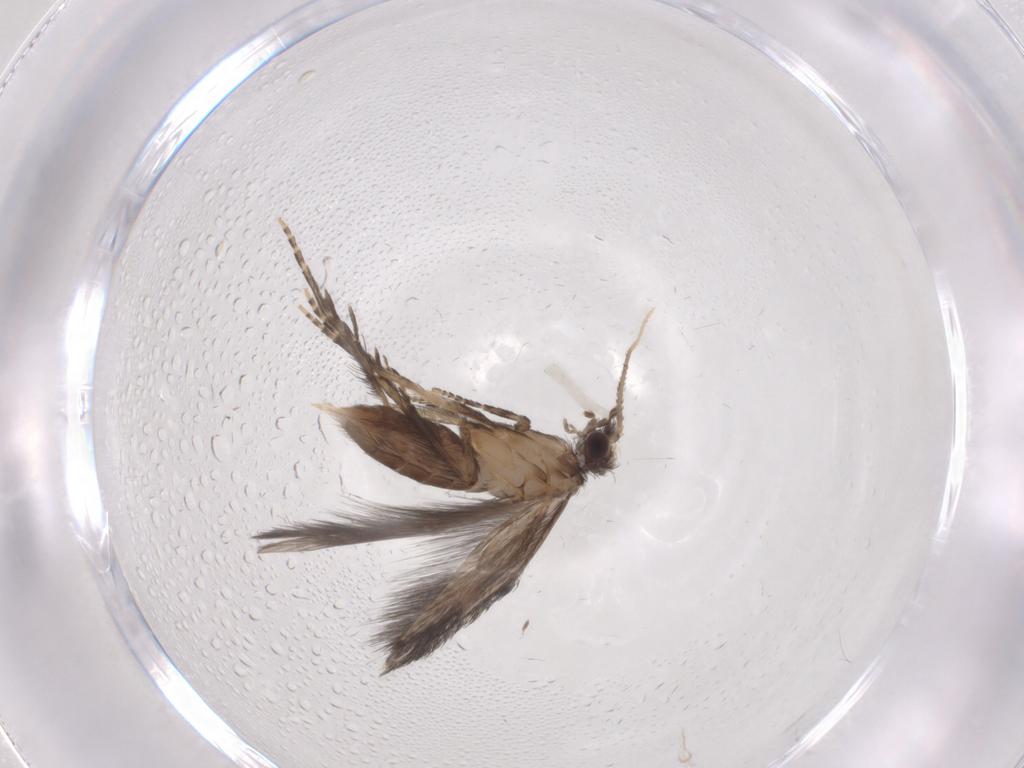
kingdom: Animalia
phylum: Arthropoda
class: Insecta
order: Trichoptera
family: Hydroptilidae
